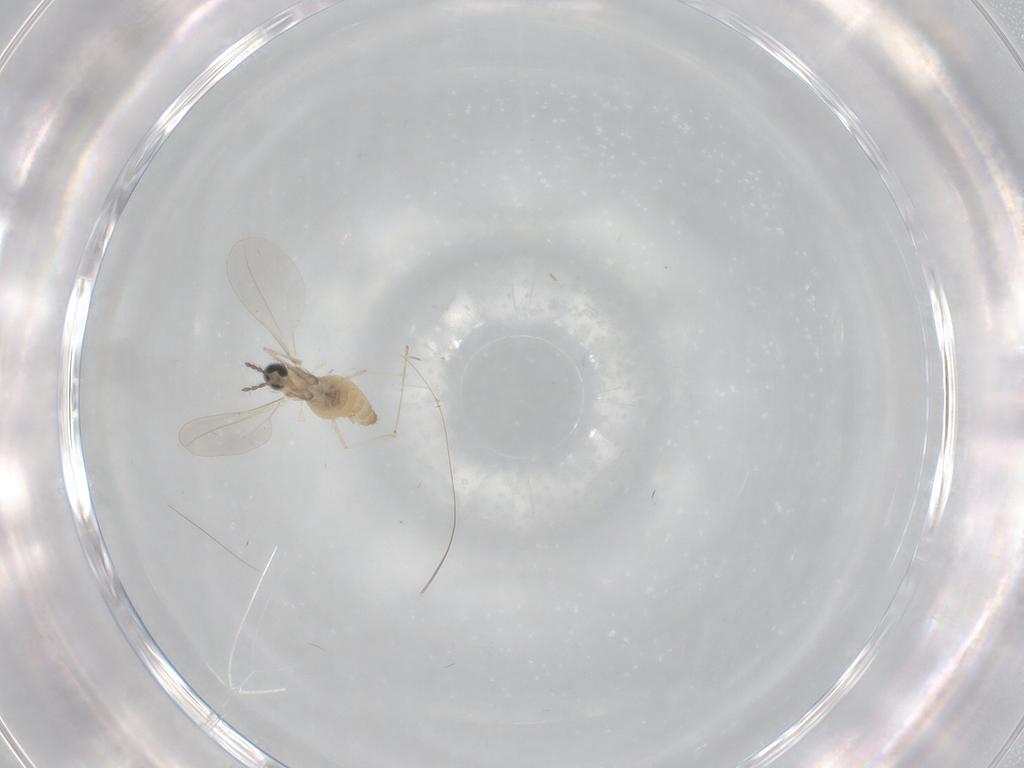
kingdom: Animalia
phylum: Arthropoda
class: Insecta
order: Diptera
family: Cecidomyiidae
